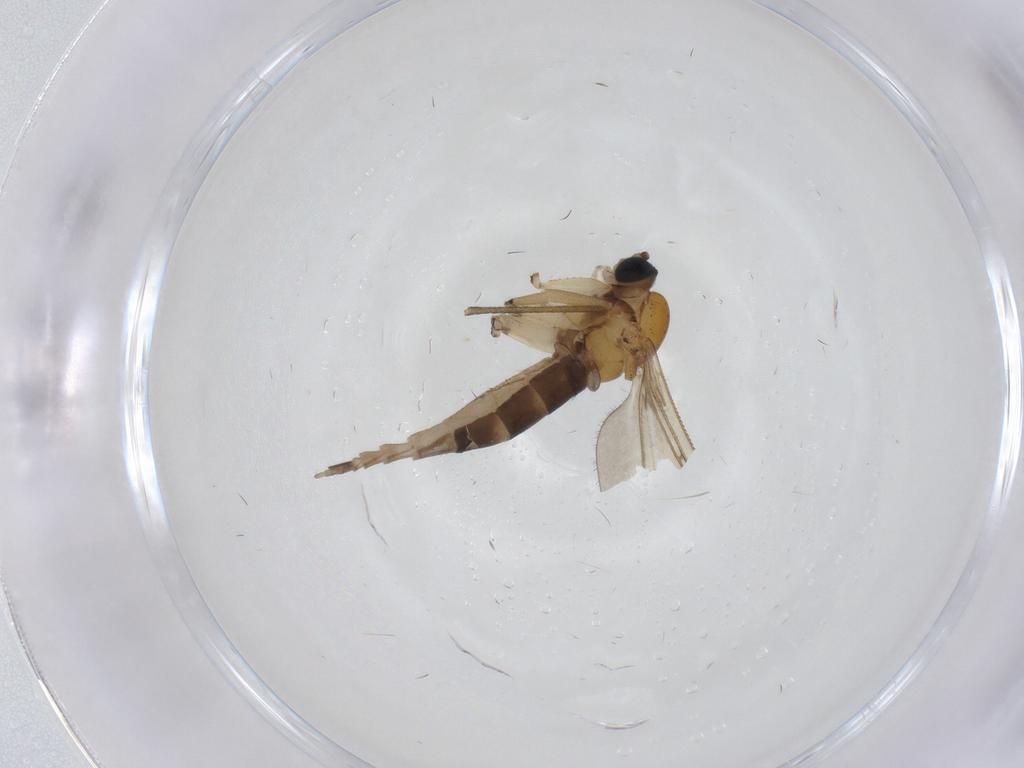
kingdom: Animalia
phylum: Arthropoda
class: Insecta
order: Diptera
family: Sciaridae
